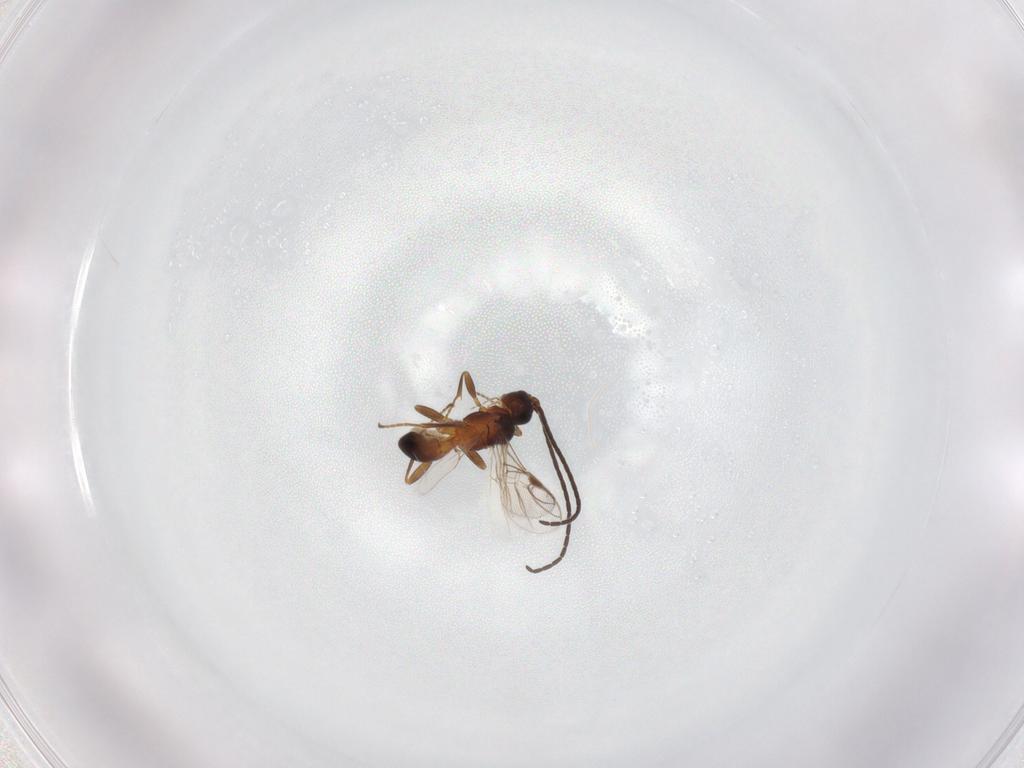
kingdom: Animalia
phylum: Arthropoda
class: Insecta
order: Hymenoptera
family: Braconidae
